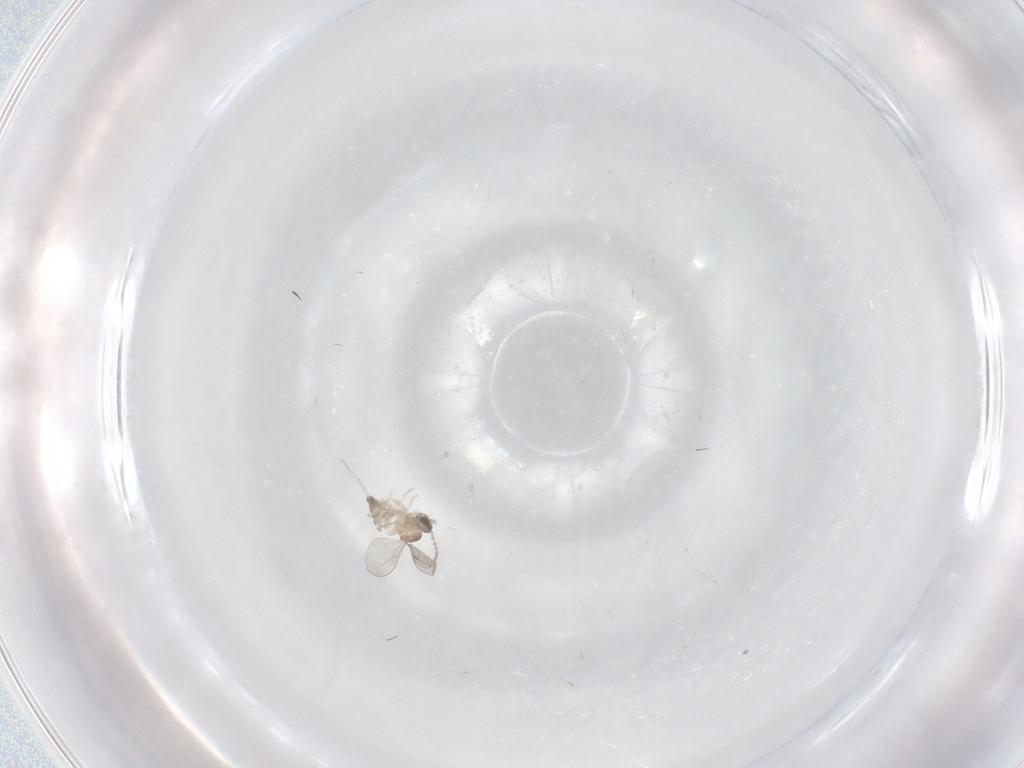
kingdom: Animalia
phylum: Arthropoda
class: Insecta
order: Diptera
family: Cecidomyiidae
